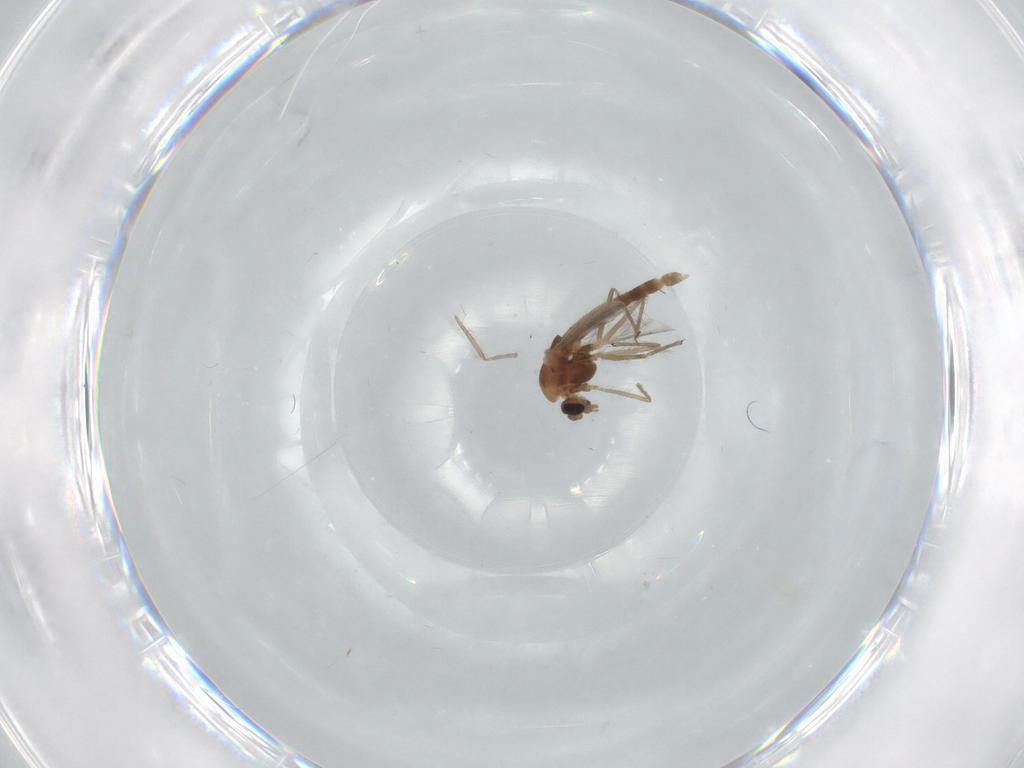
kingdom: Animalia
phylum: Arthropoda
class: Insecta
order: Diptera
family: Chironomidae
